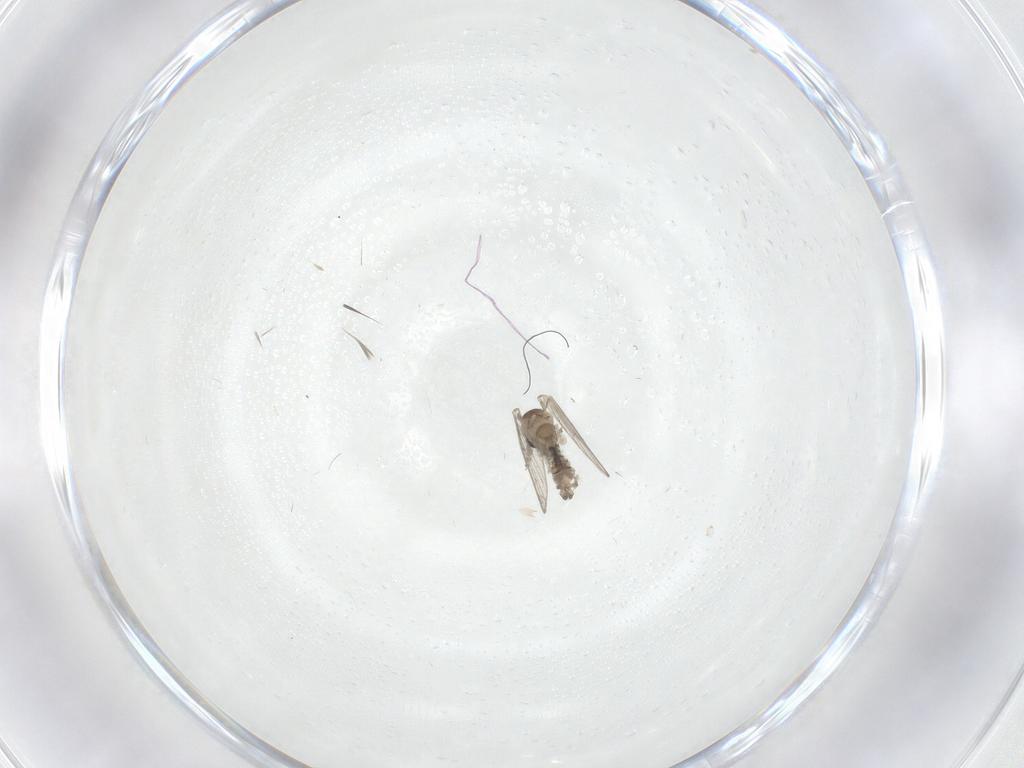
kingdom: Animalia
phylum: Arthropoda
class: Insecta
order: Diptera
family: Psychodidae
